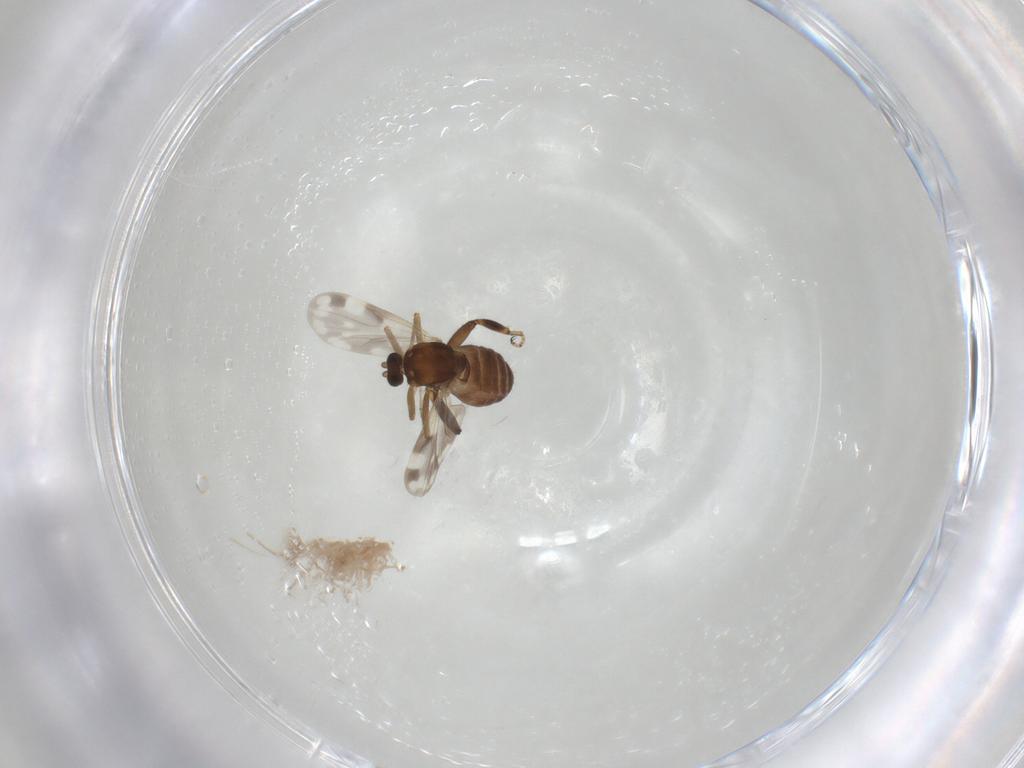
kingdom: Animalia
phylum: Arthropoda
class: Insecta
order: Diptera
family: Ceratopogonidae
